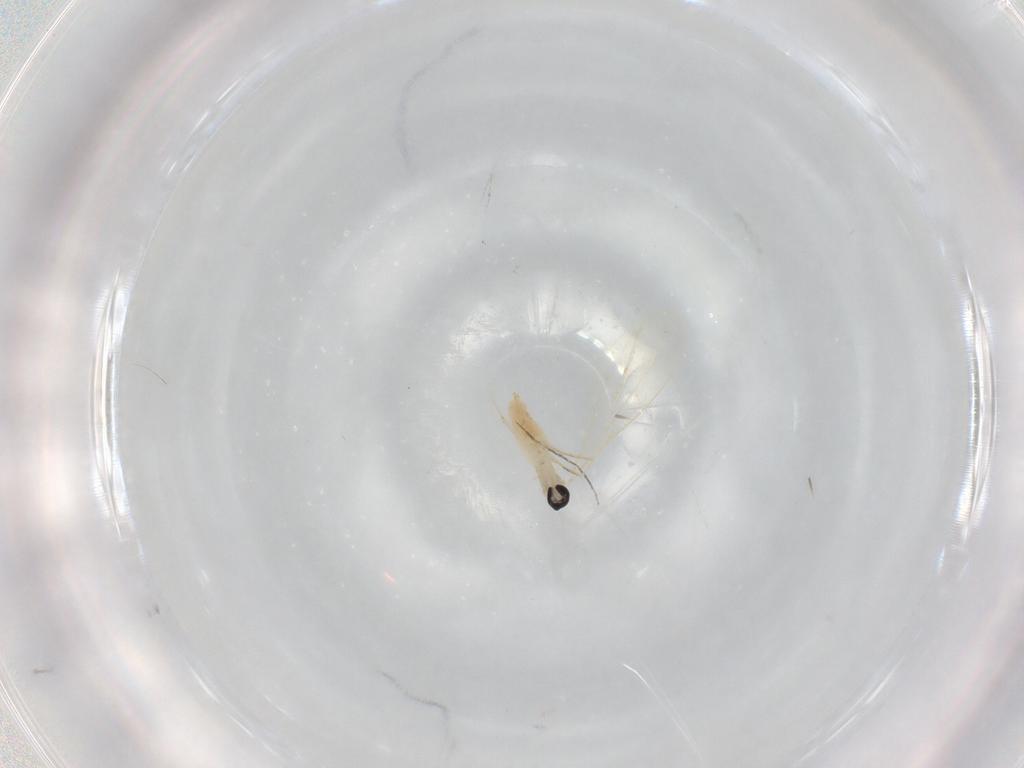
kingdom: Animalia
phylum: Arthropoda
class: Insecta
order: Diptera
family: Cecidomyiidae
